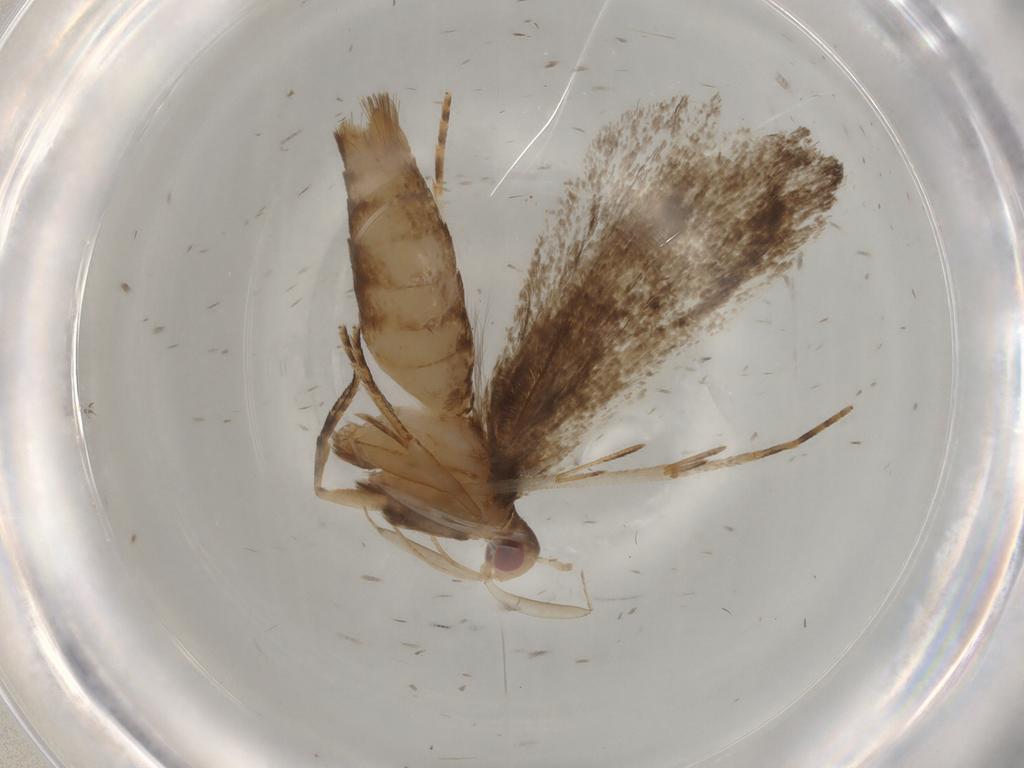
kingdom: Animalia
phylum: Arthropoda
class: Insecta
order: Lepidoptera
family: Gelechiidae
